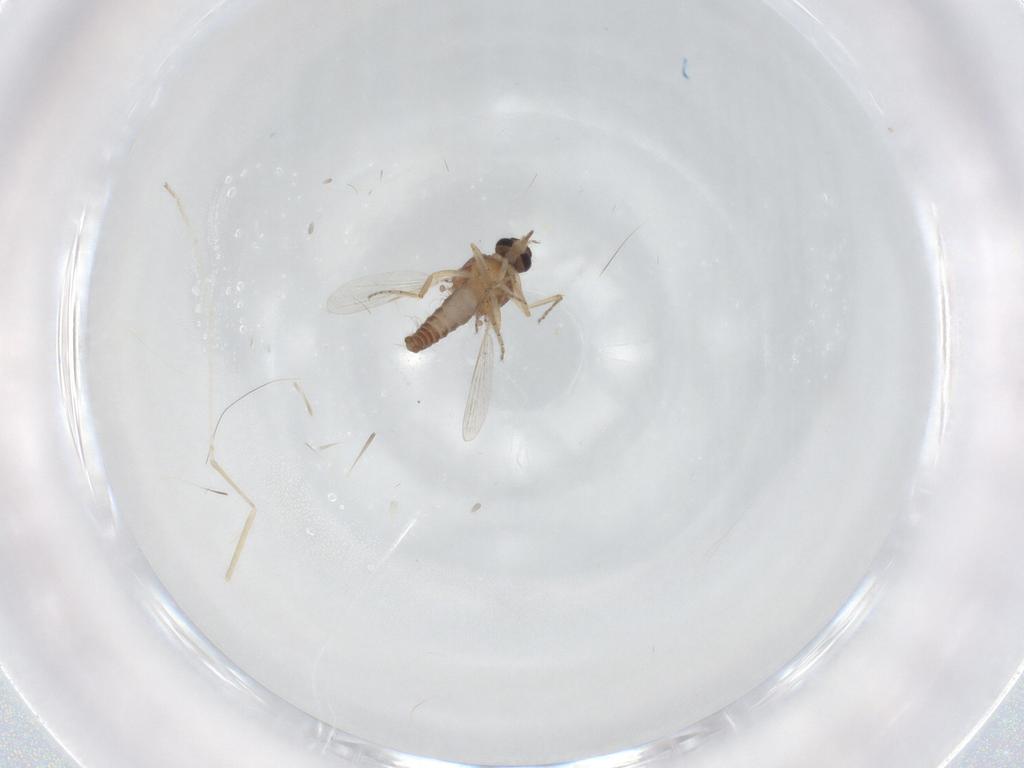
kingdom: Animalia
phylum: Arthropoda
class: Insecta
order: Diptera
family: Ceratopogonidae
